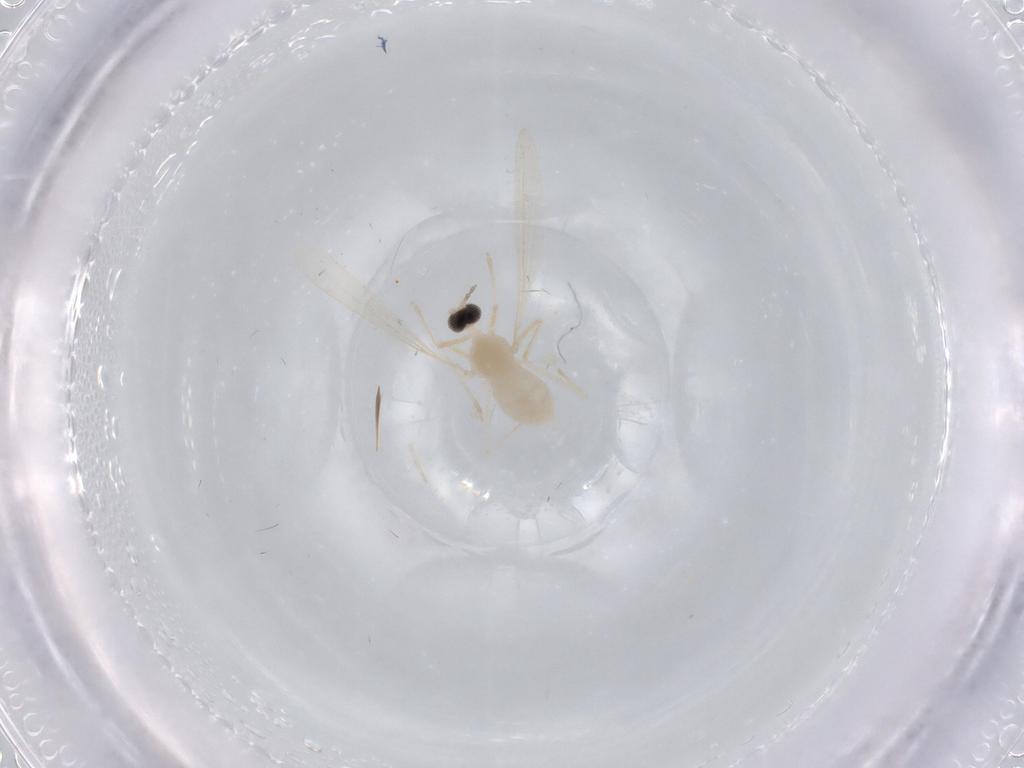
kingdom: Animalia
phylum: Arthropoda
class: Insecta
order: Diptera
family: Cecidomyiidae
